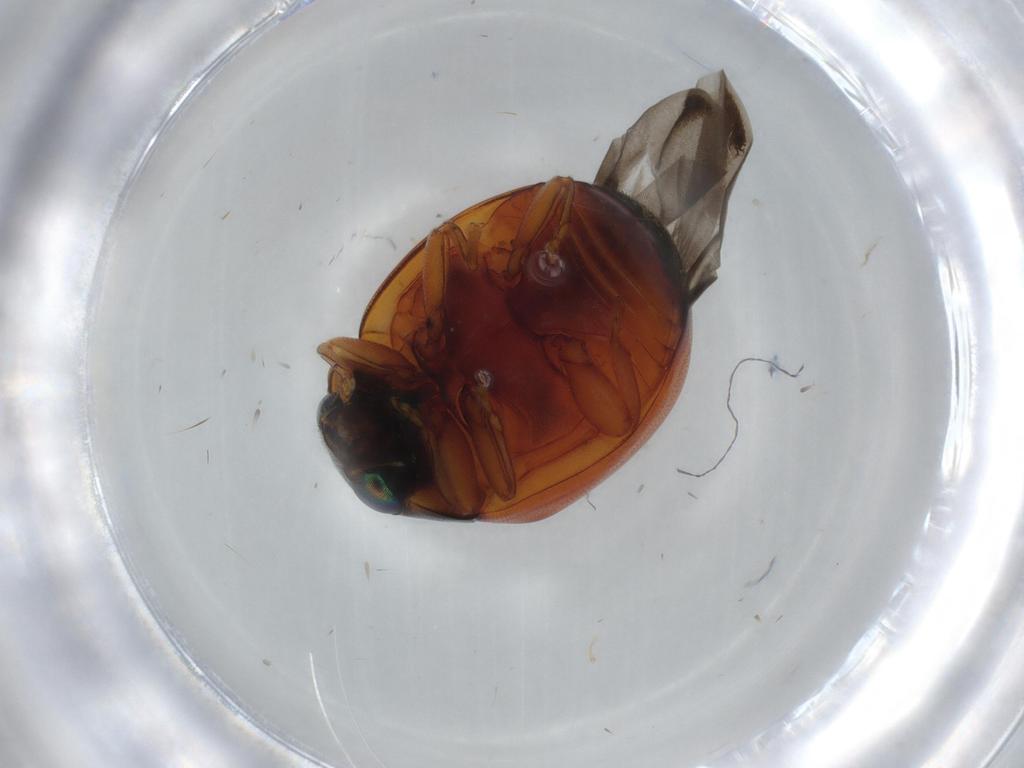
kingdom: Animalia
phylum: Arthropoda
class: Insecta
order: Coleoptera
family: Coccinellidae
